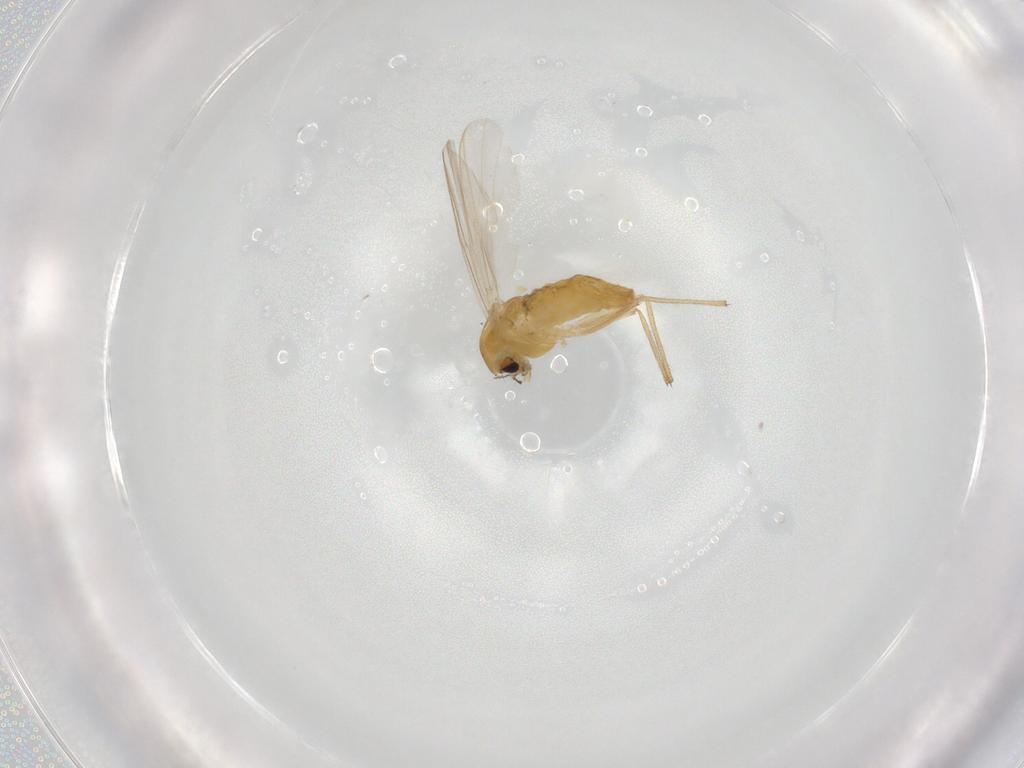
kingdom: Animalia
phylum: Arthropoda
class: Insecta
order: Diptera
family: Chironomidae
